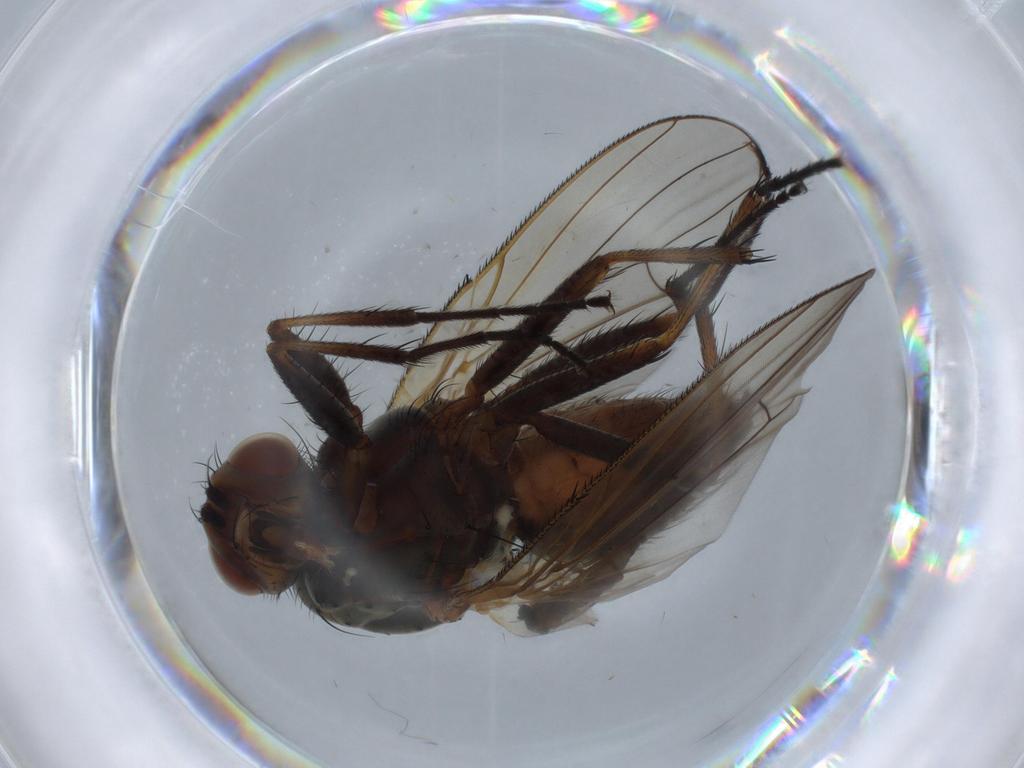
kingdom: Animalia
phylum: Arthropoda
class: Insecta
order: Diptera
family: Anthomyiidae
